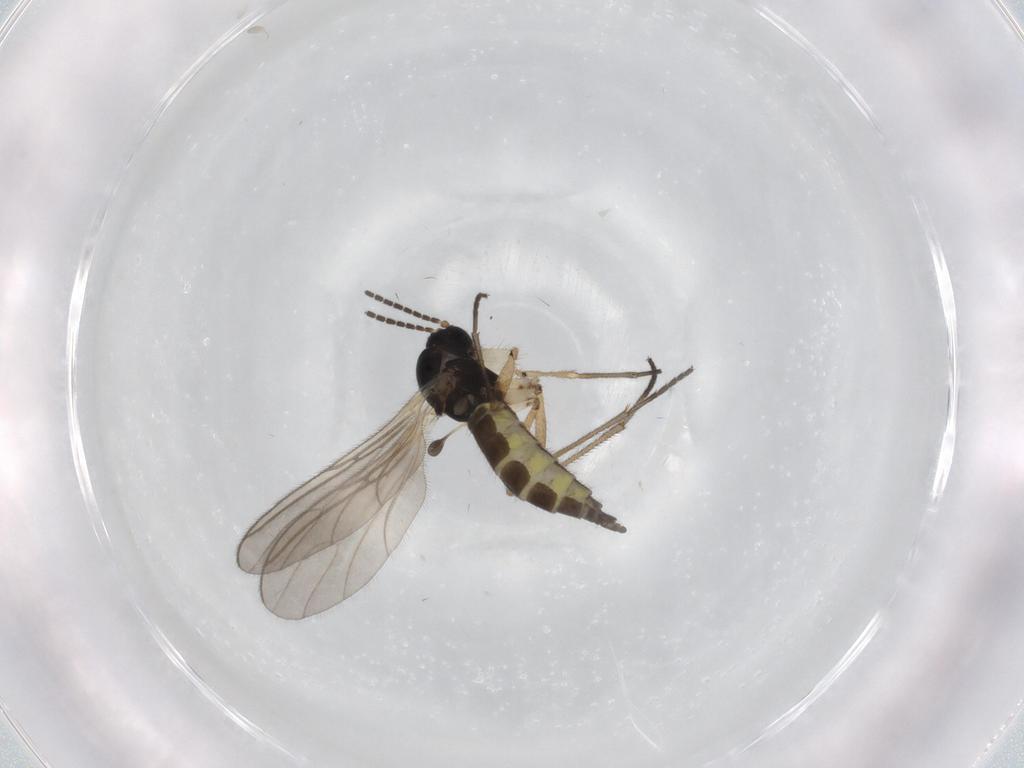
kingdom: Animalia
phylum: Arthropoda
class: Insecta
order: Diptera
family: Sciaridae
